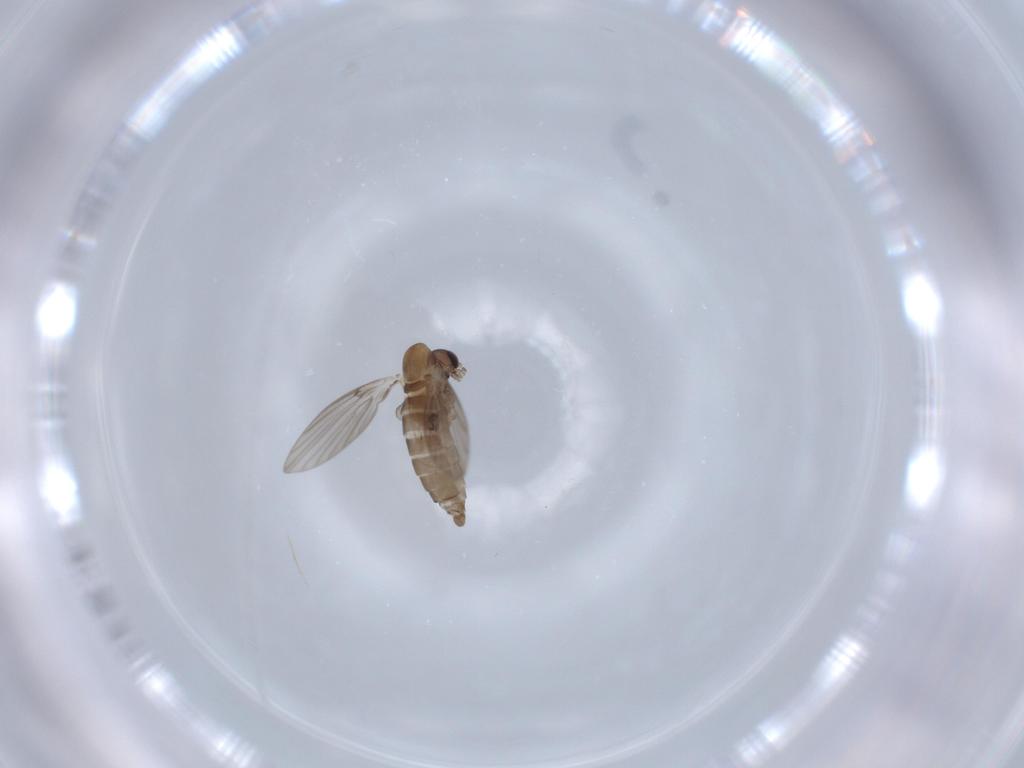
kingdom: Animalia
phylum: Arthropoda
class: Insecta
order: Diptera
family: Psychodidae
